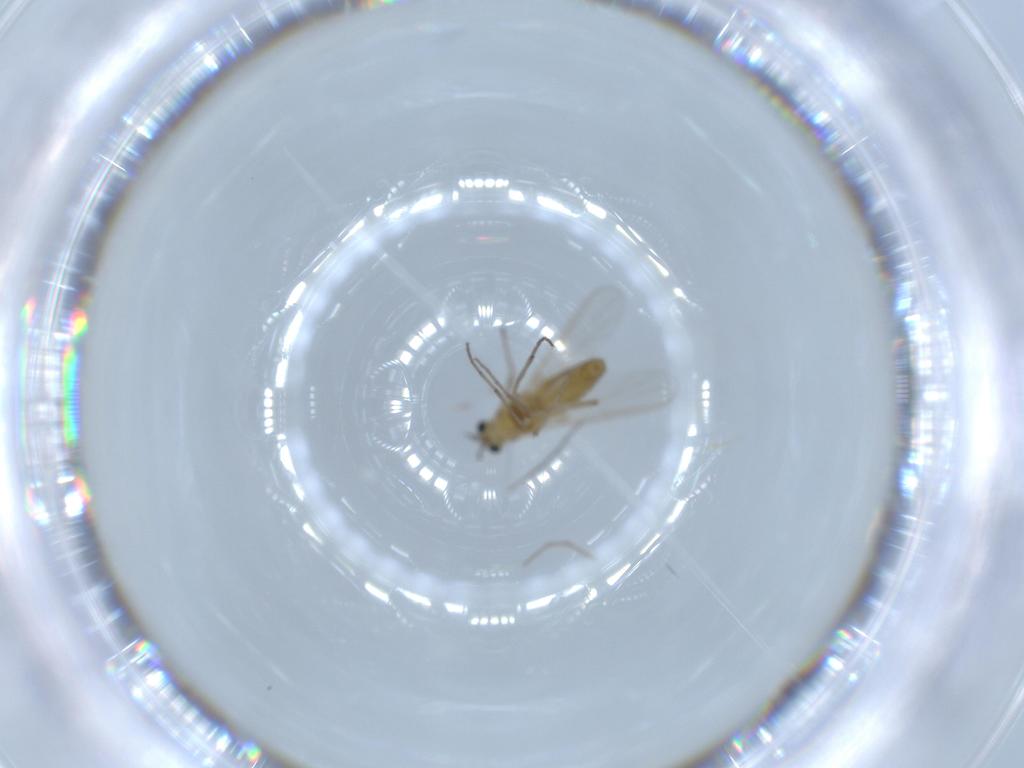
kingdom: Animalia
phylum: Arthropoda
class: Insecta
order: Diptera
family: Chironomidae
